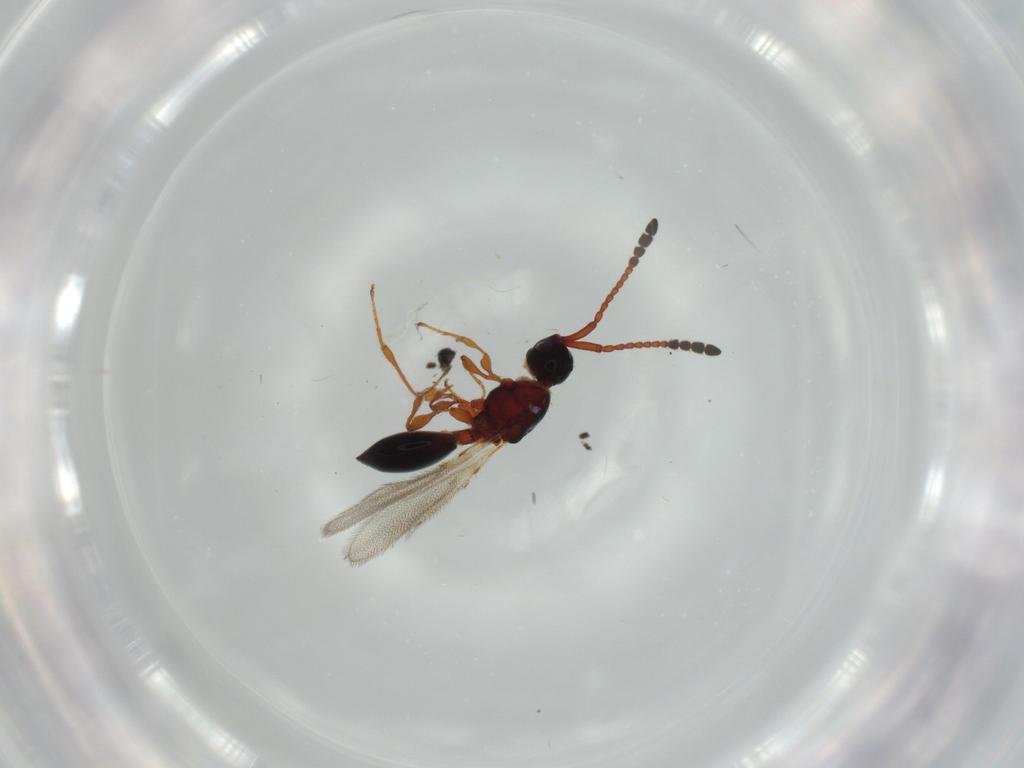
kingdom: Animalia
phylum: Arthropoda
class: Insecta
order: Hymenoptera
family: Diapriidae
